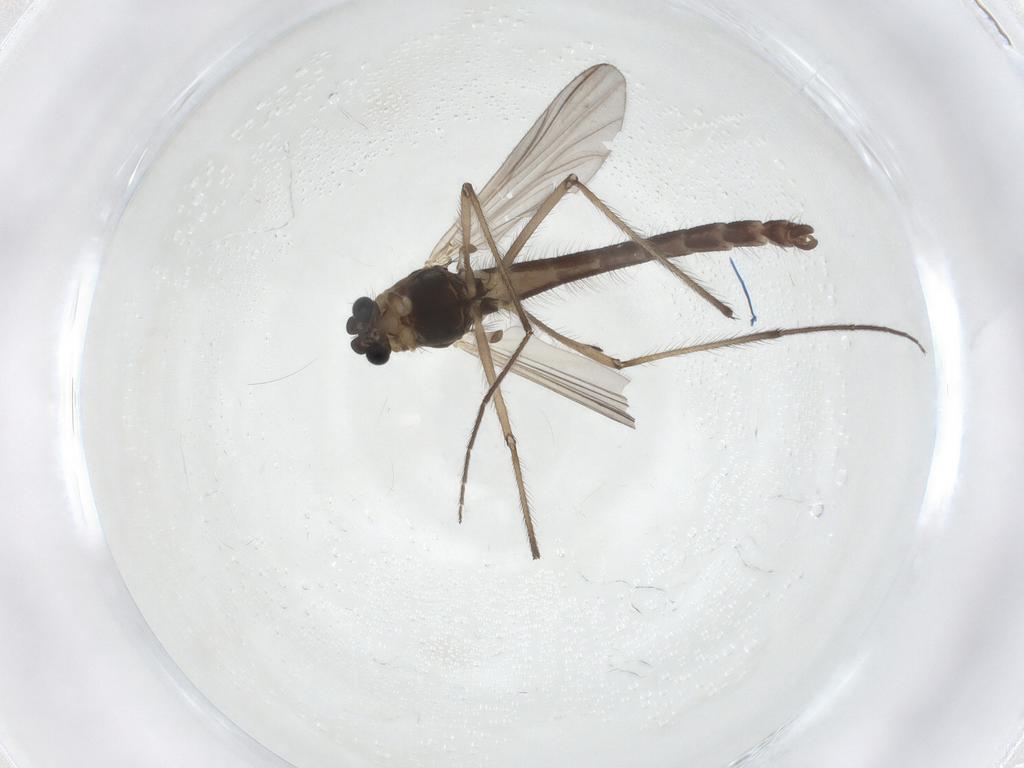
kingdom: Animalia
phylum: Arthropoda
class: Insecta
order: Diptera
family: Chironomidae
